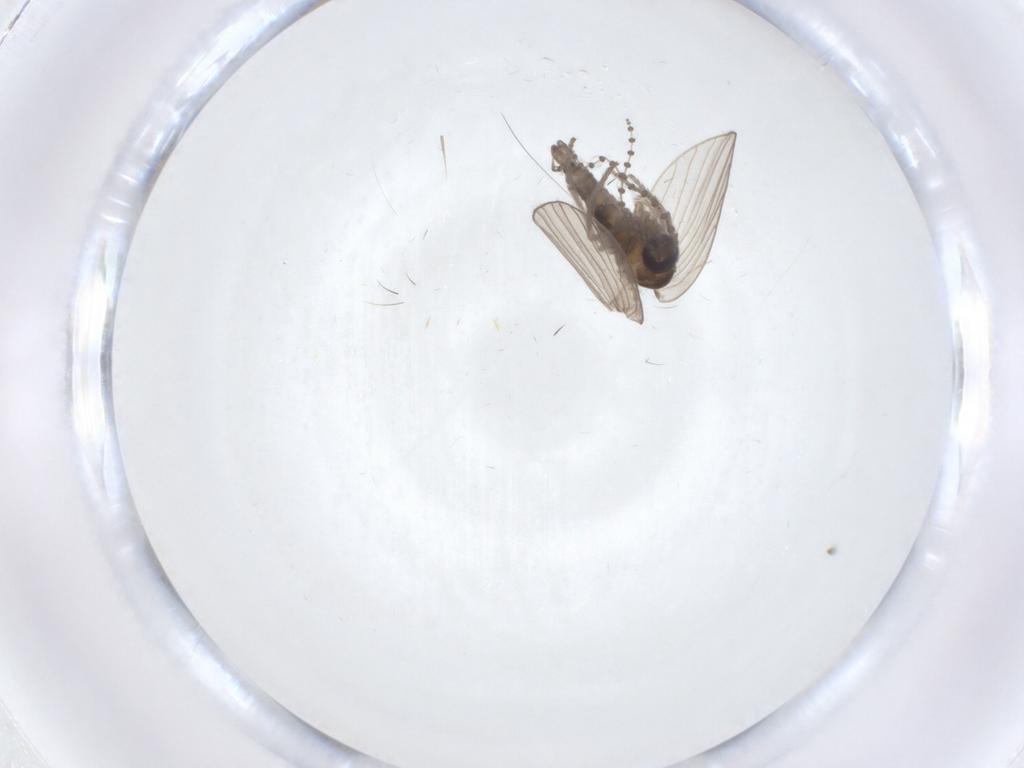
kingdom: Animalia
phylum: Arthropoda
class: Insecta
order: Diptera
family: Psychodidae
